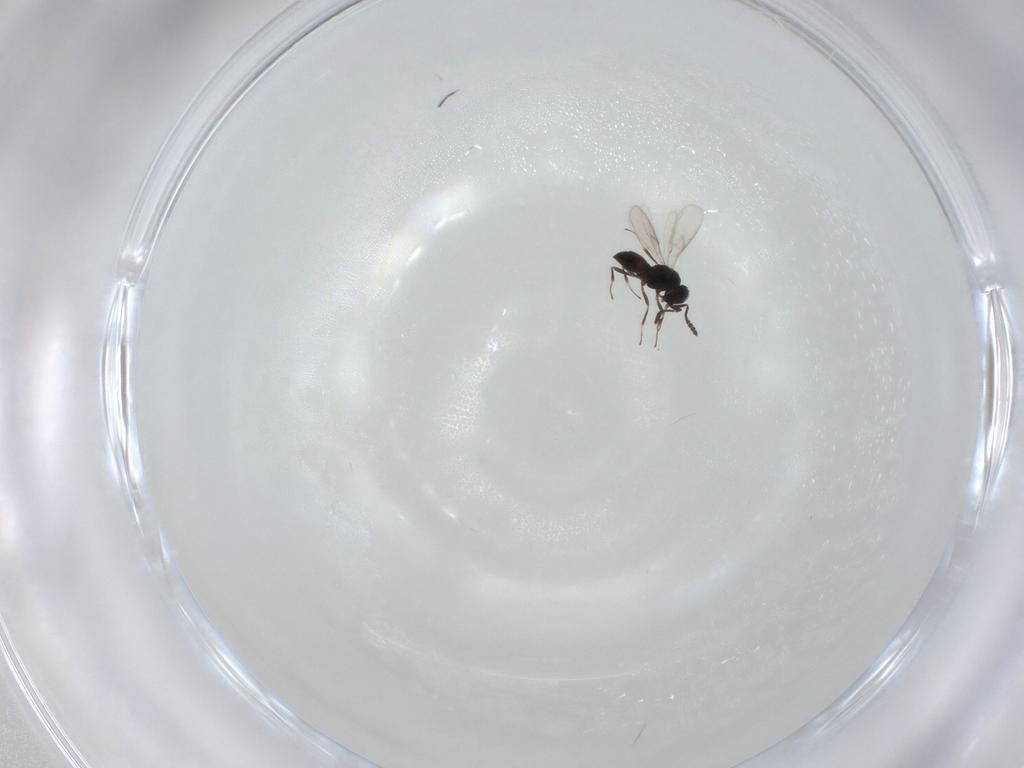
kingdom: Animalia
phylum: Arthropoda
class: Insecta
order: Hymenoptera
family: Scelionidae
